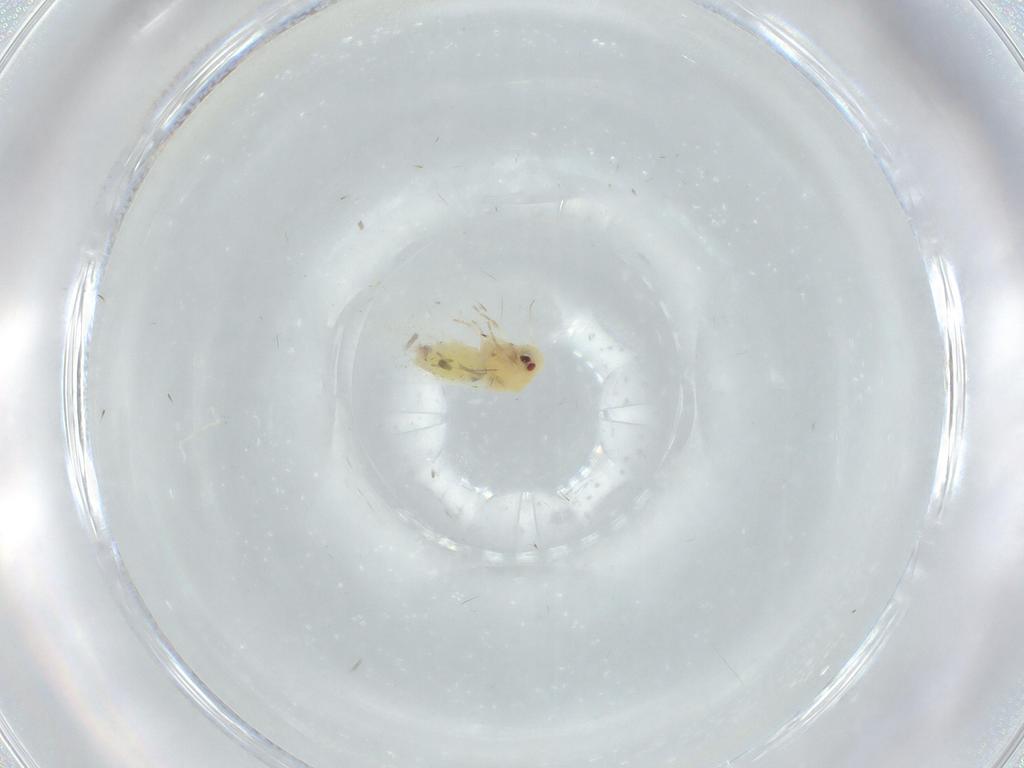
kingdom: Animalia
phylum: Arthropoda
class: Insecta
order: Hemiptera
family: Aleyrodidae
